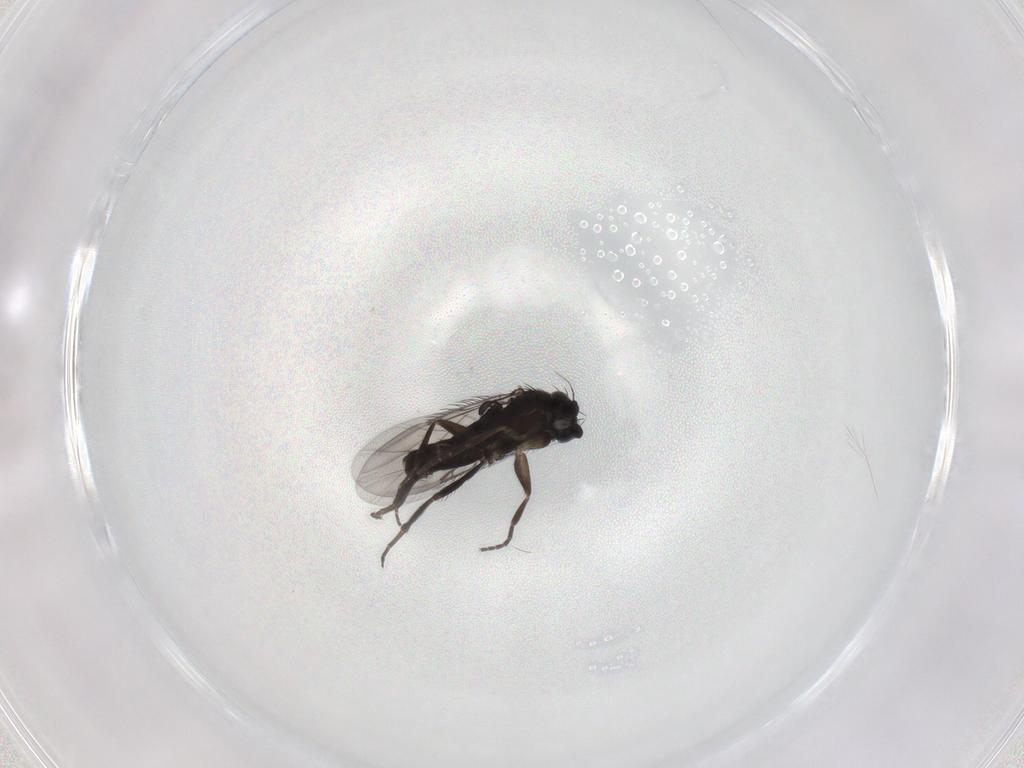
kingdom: Animalia
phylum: Arthropoda
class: Insecta
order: Diptera
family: Phoridae
